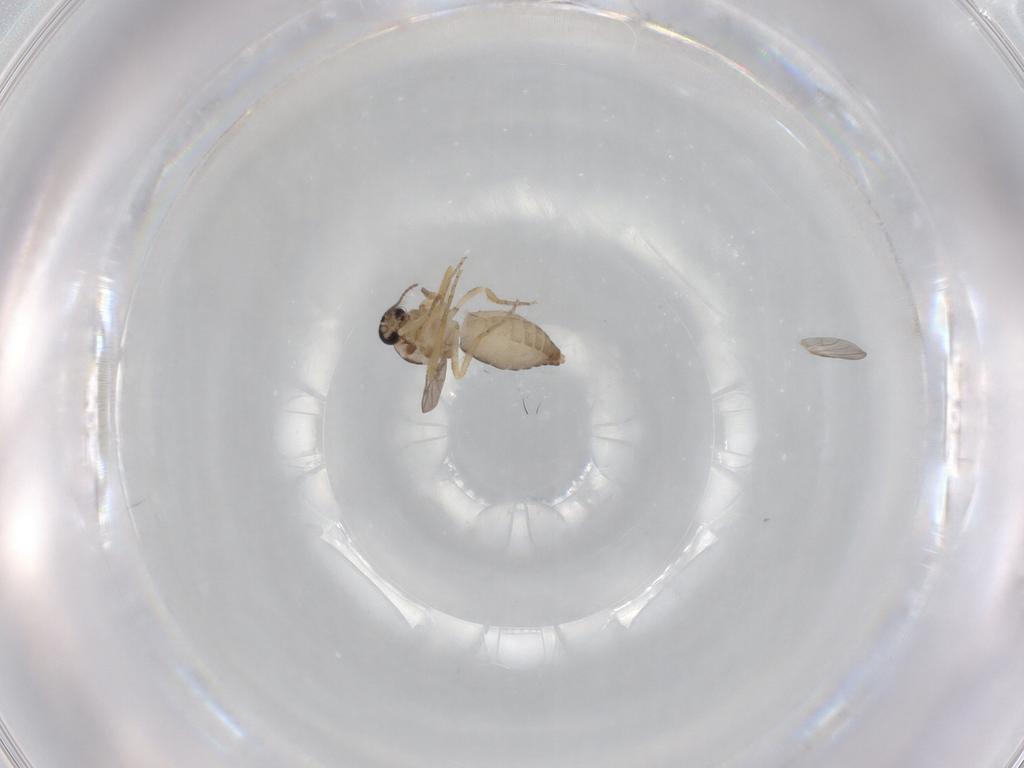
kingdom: Animalia
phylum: Arthropoda
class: Insecta
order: Diptera
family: Ceratopogonidae
